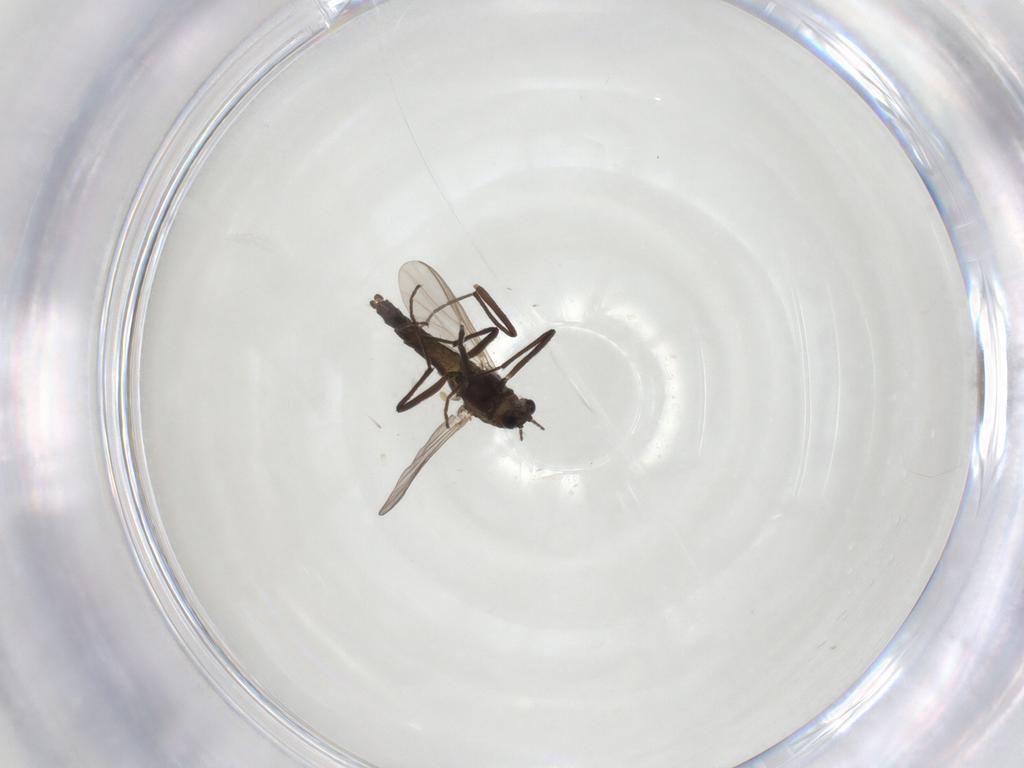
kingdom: Animalia
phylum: Arthropoda
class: Insecta
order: Diptera
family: Chironomidae
